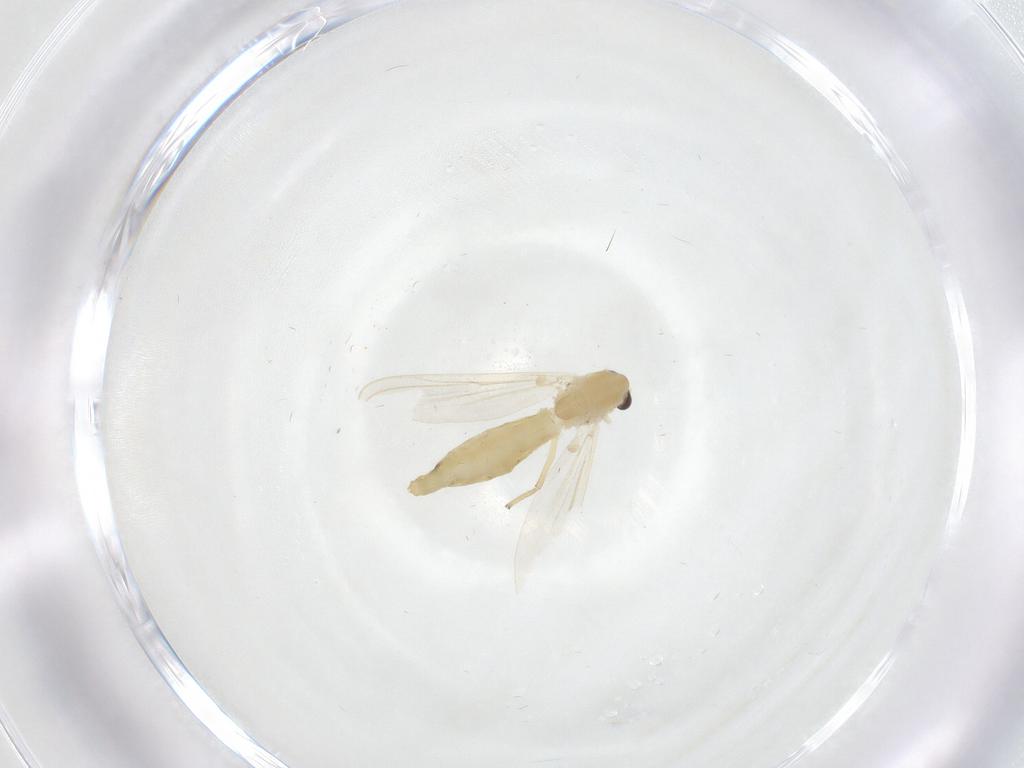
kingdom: Animalia
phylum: Arthropoda
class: Insecta
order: Diptera
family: Chironomidae
